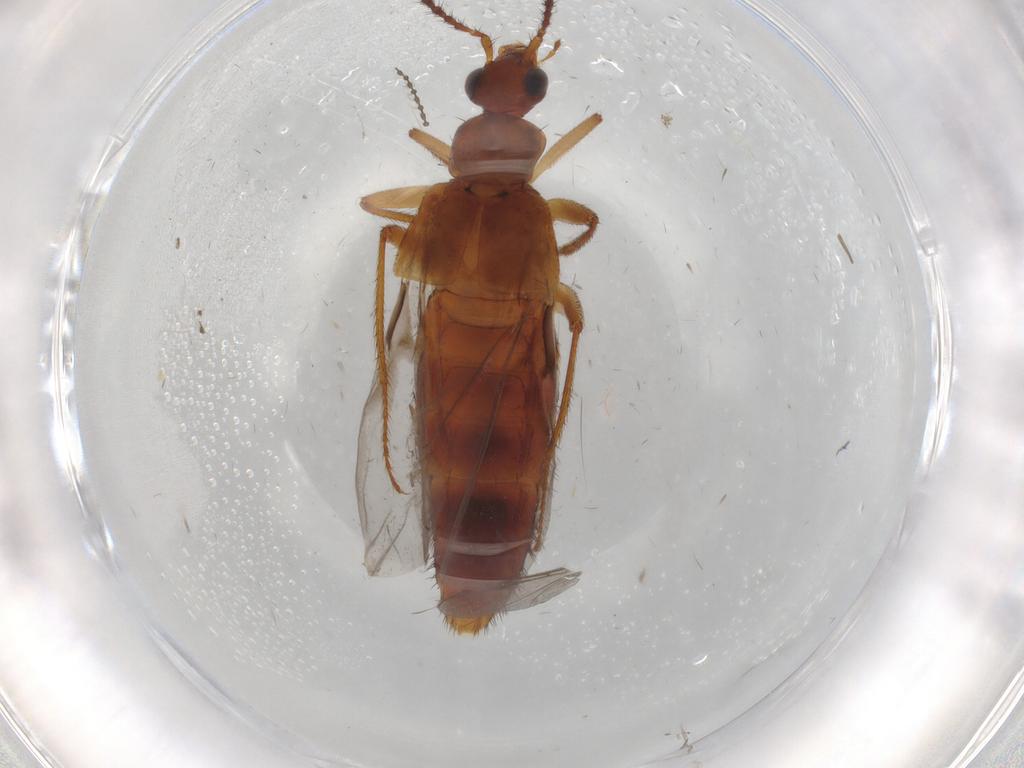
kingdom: Animalia
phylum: Arthropoda
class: Insecta
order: Coleoptera
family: Staphylinidae
